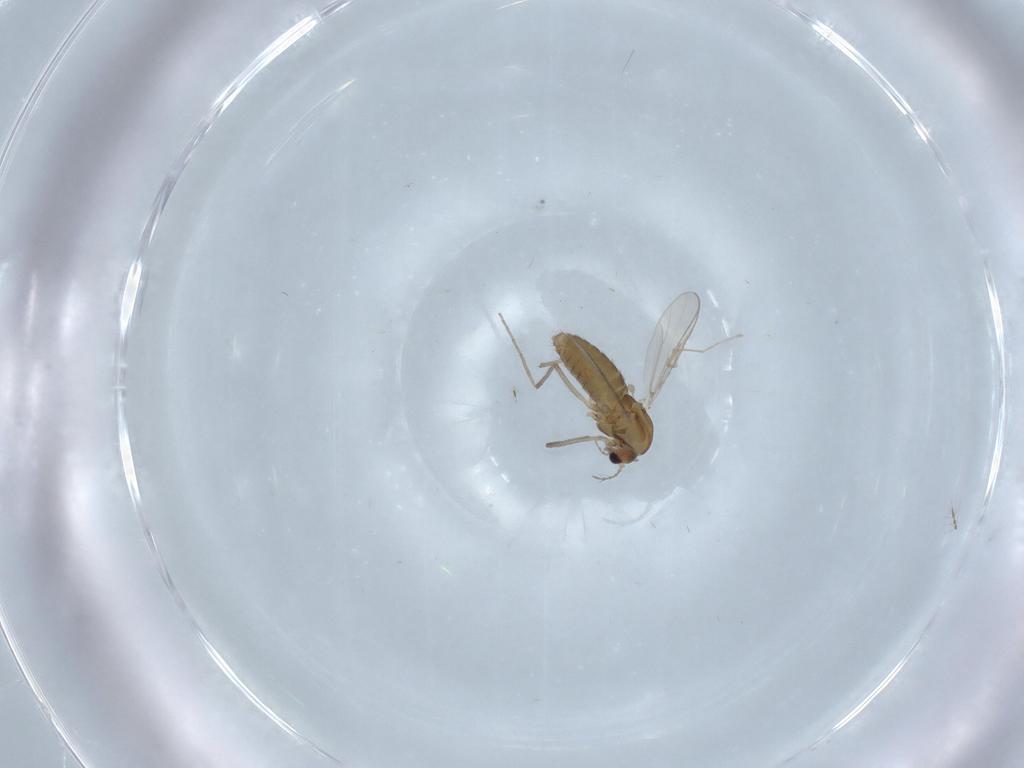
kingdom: Animalia
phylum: Arthropoda
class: Insecta
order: Diptera
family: Chironomidae
